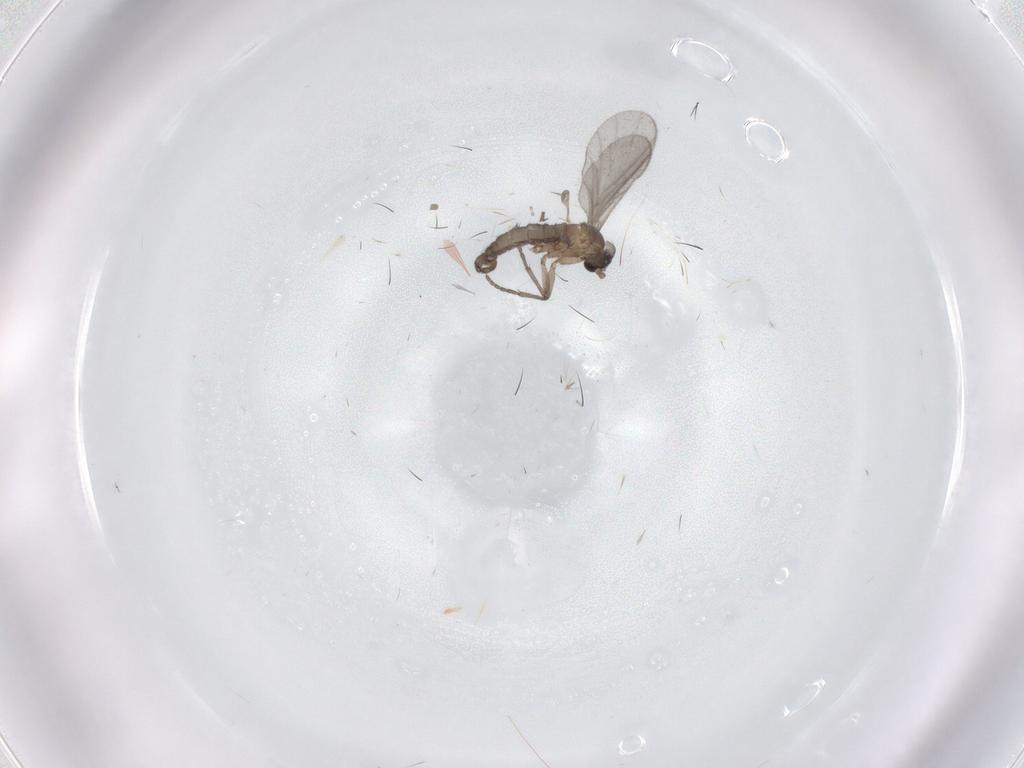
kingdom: Animalia
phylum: Arthropoda
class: Insecta
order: Diptera
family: Sciaridae
